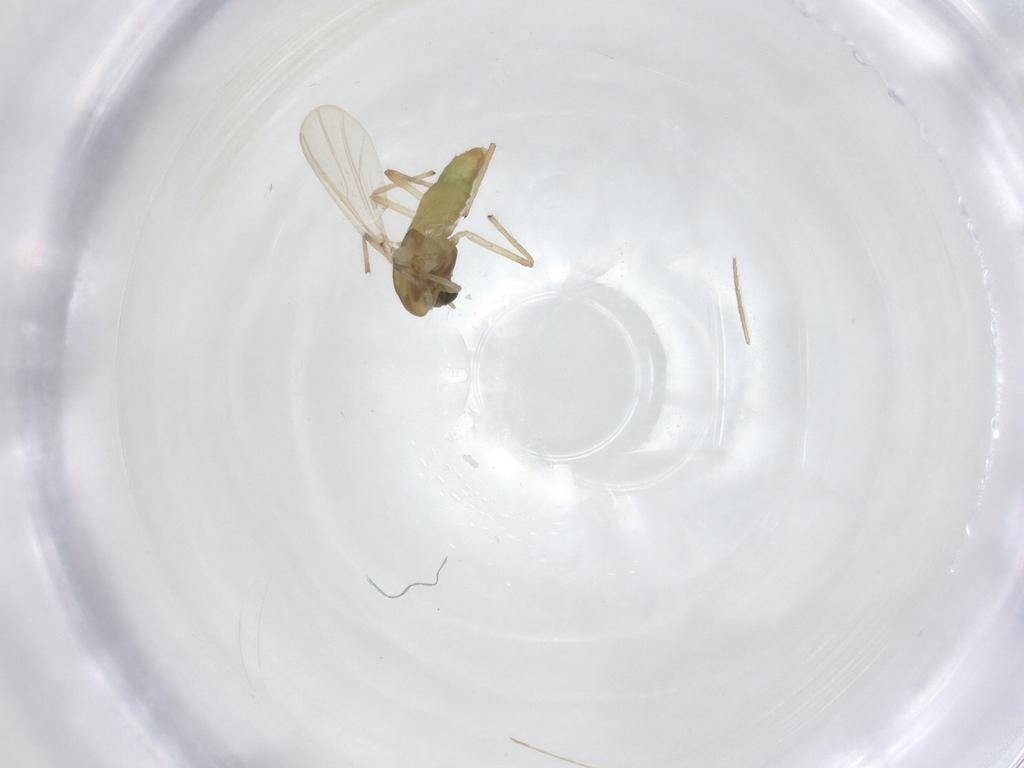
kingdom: Animalia
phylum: Arthropoda
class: Insecta
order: Diptera
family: Chironomidae
